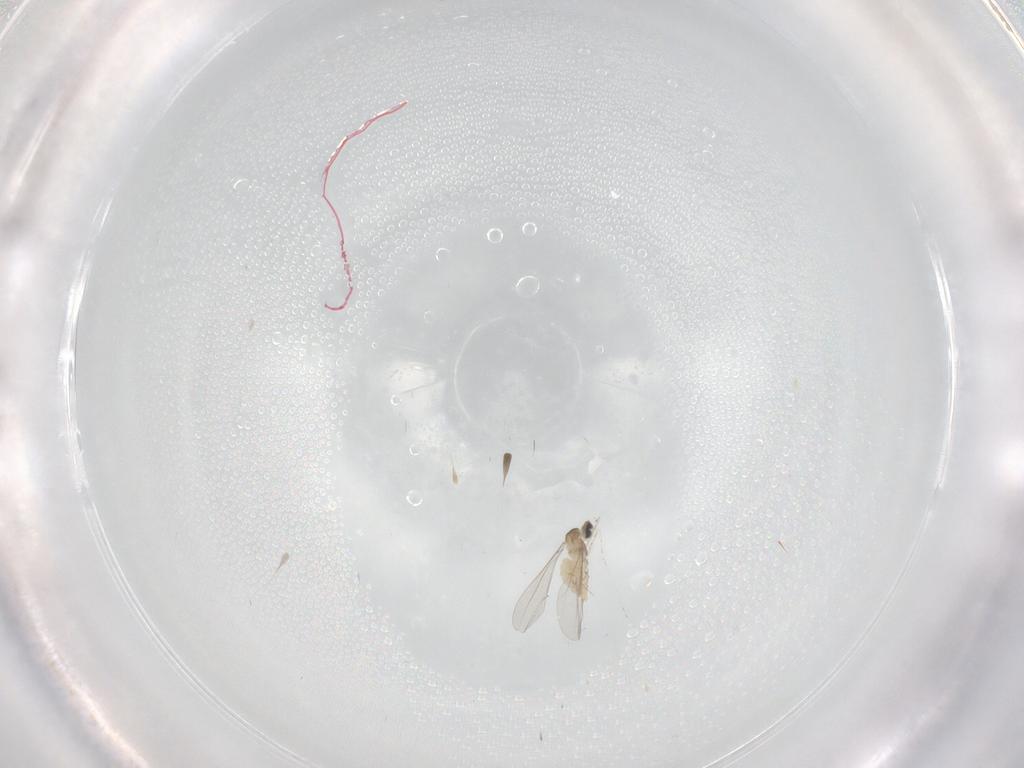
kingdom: Animalia
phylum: Arthropoda
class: Insecta
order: Diptera
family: Cecidomyiidae
